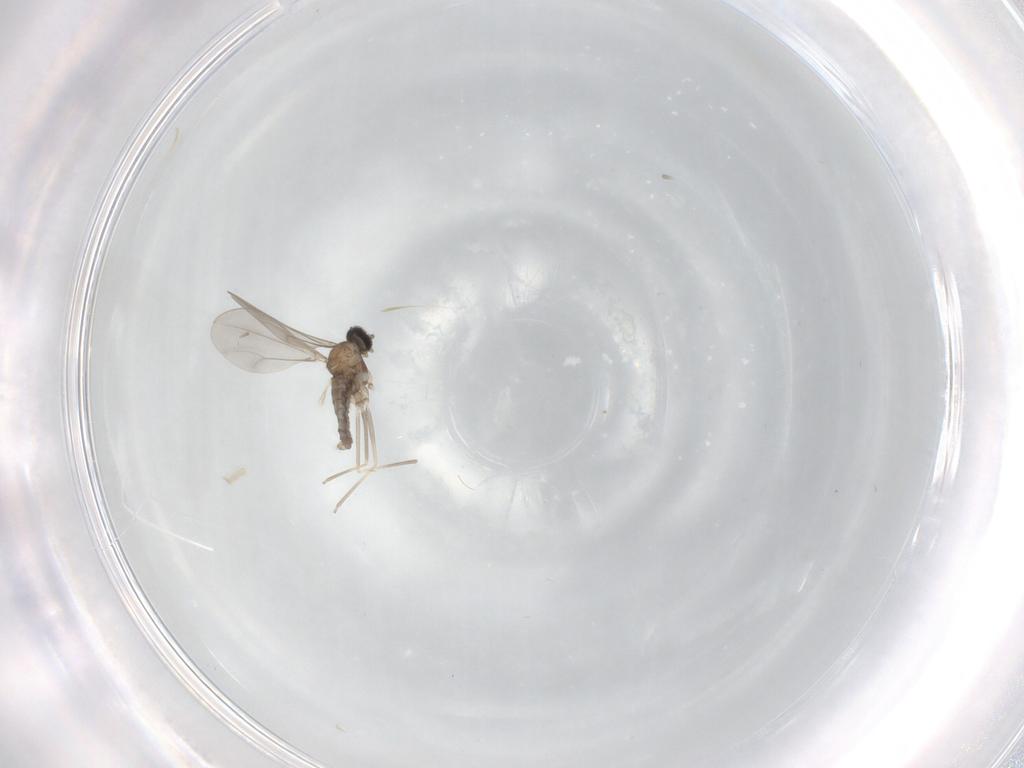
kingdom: Animalia
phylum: Arthropoda
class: Insecta
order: Diptera
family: Cecidomyiidae
